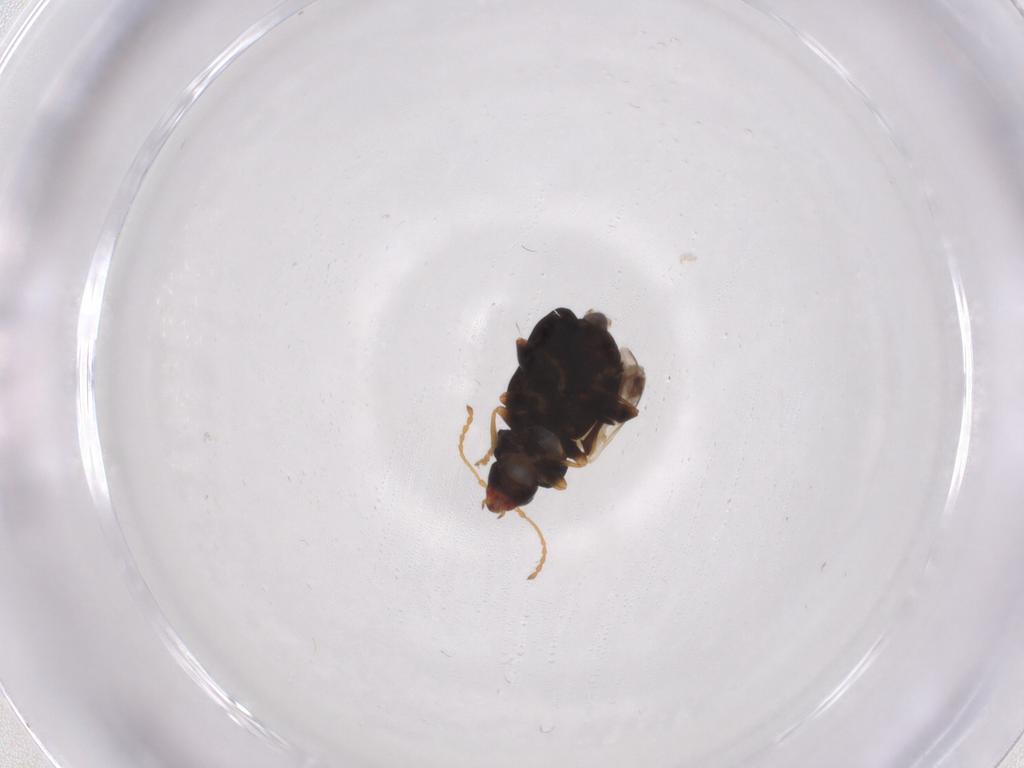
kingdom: Animalia
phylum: Arthropoda
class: Insecta
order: Coleoptera
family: Chrysomelidae
